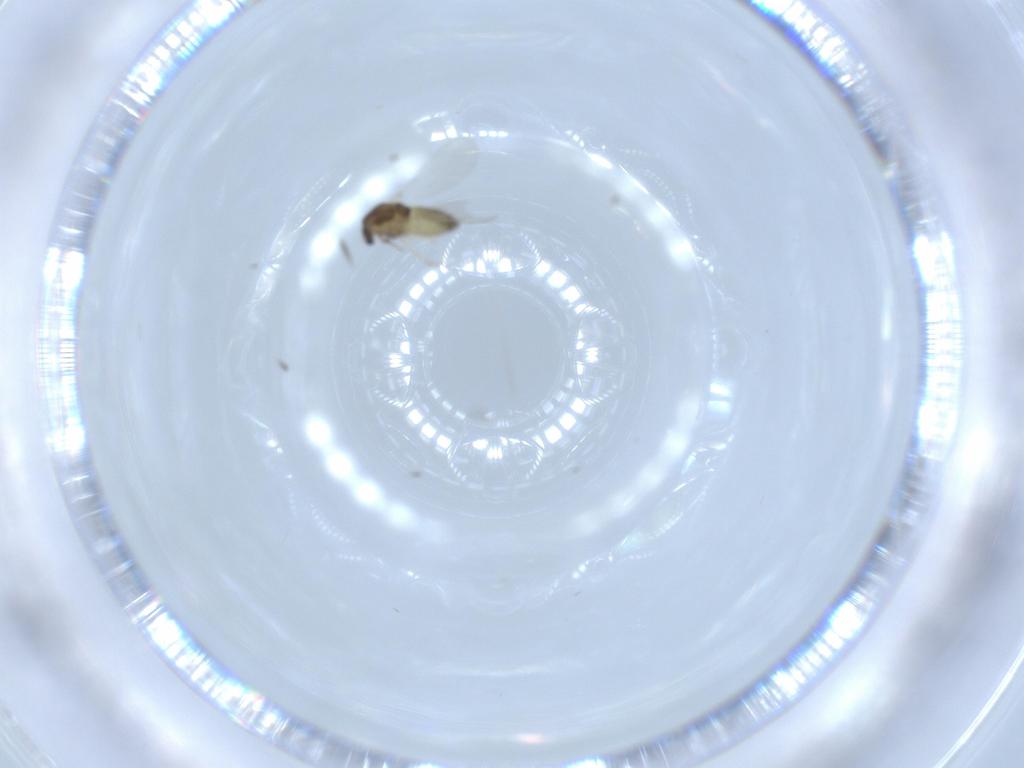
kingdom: Animalia
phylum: Arthropoda
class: Insecta
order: Diptera
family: Chironomidae
